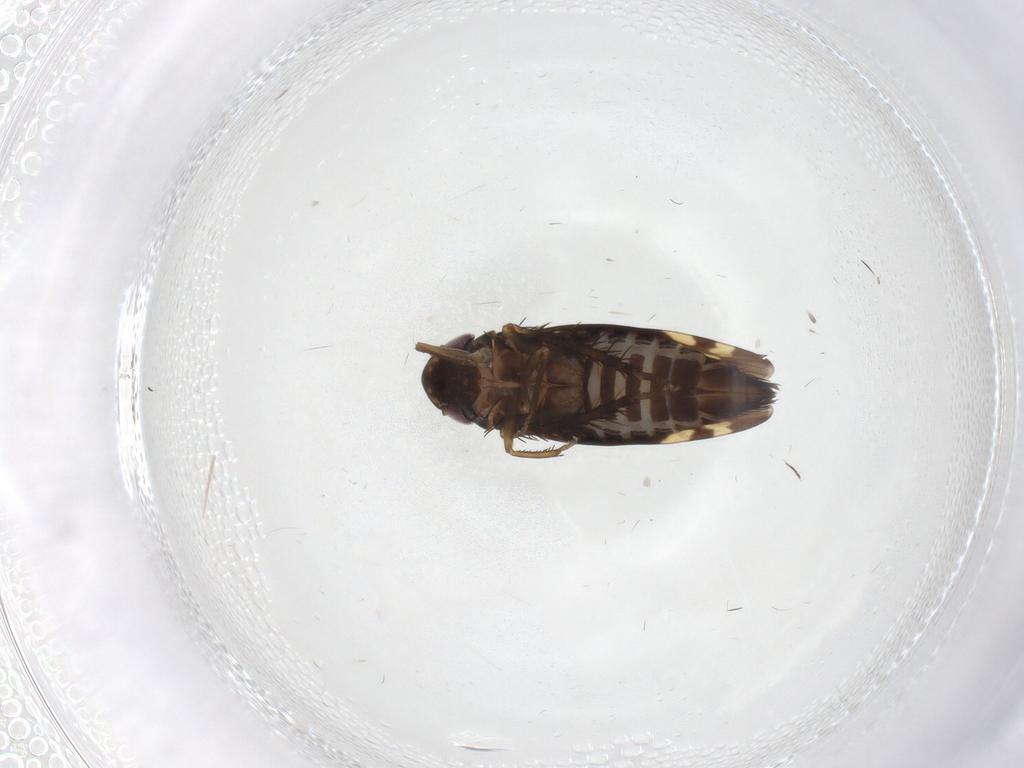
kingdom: Animalia
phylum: Arthropoda
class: Insecta
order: Hemiptera
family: Cicadellidae
